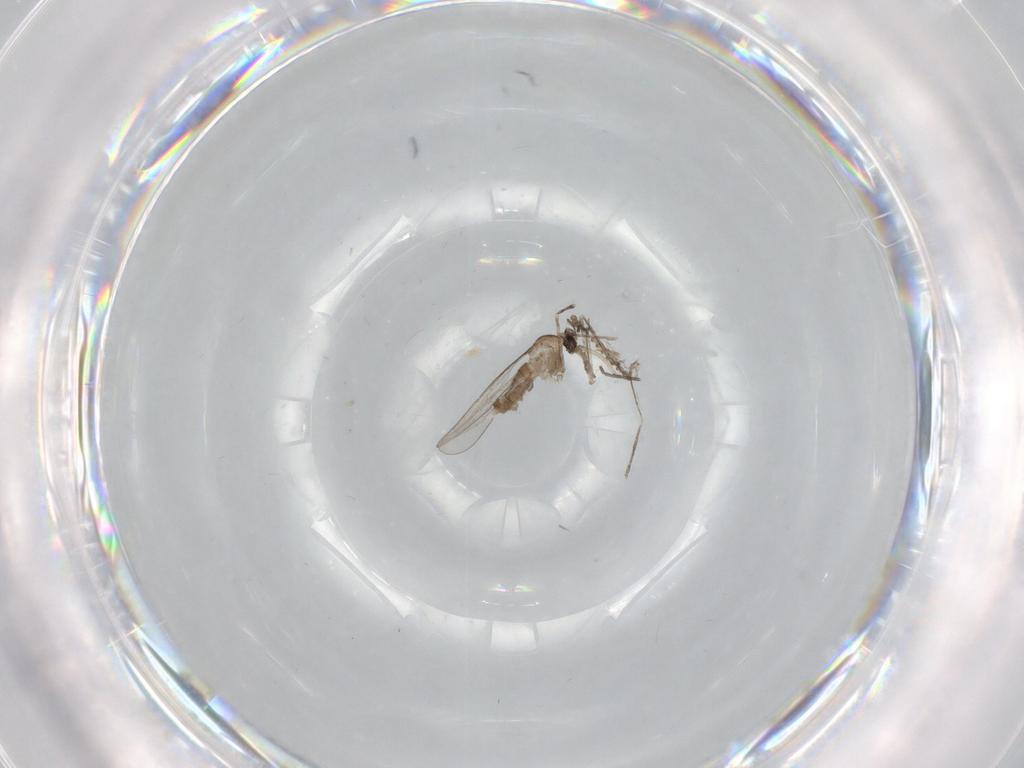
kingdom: Animalia
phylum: Arthropoda
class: Insecta
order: Diptera
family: Cecidomyiidae
